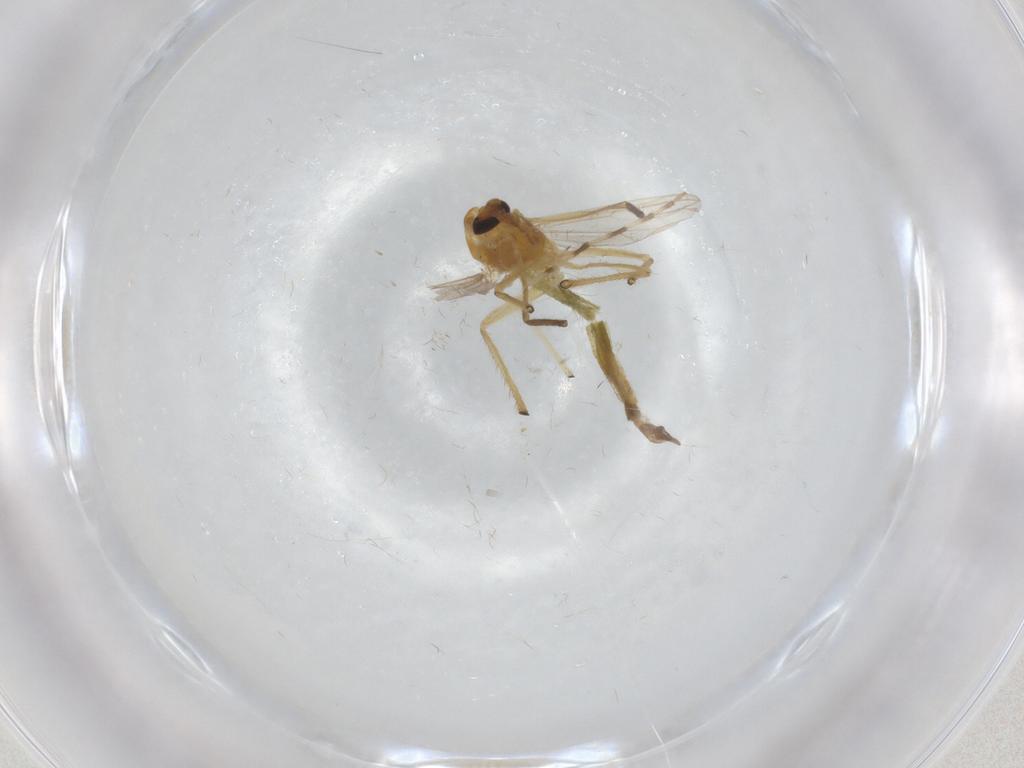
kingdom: Animalia
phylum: Arthropoda
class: Insecta
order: Diptera
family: Chironomidae
